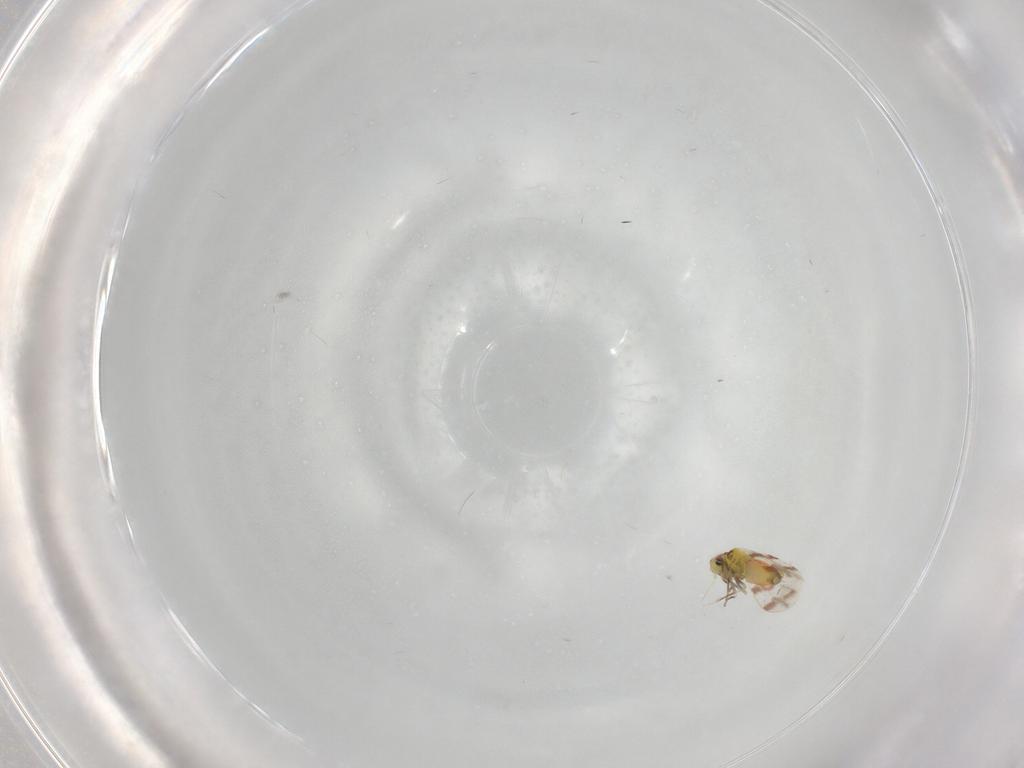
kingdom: Animalia
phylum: Arthropoda
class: Insecta
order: Hemiptera
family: Aleyrodidae
